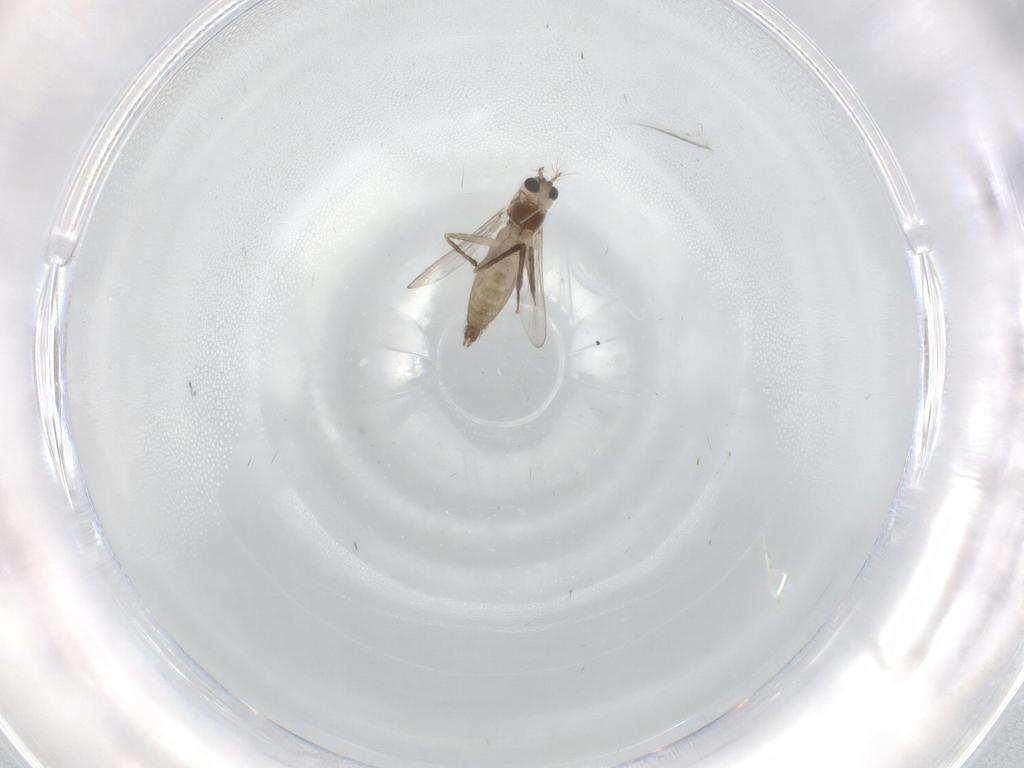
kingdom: Animalia
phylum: Arthropoda
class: Insecta
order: Diptera
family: Chironomidae
